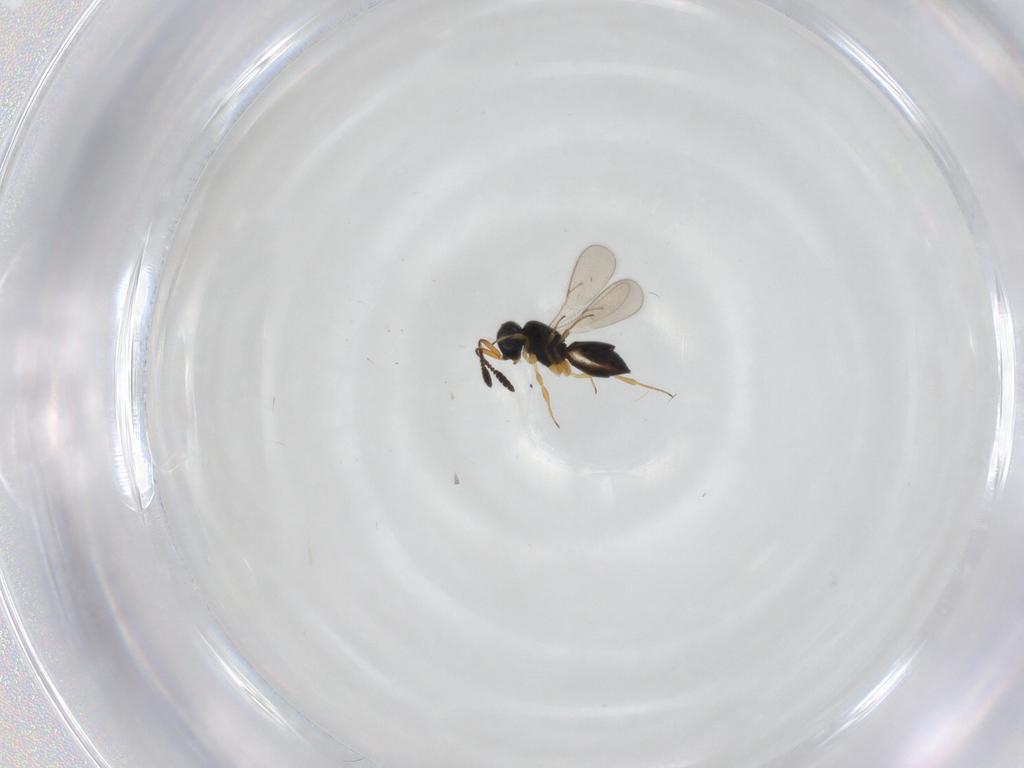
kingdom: Animalia
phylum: Arthropoda
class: Insecta
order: Hymenoptera
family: Scelionidae
